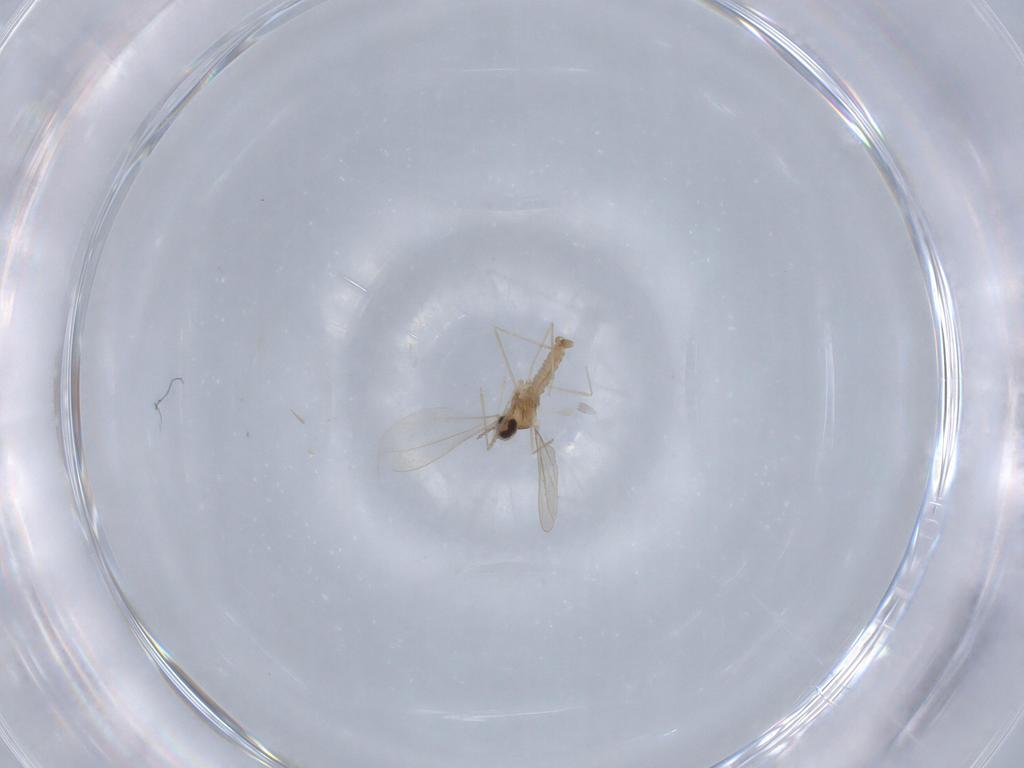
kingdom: Animalia
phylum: Arthropoda
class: Insecta
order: Diptera
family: Cecidomyiidae
